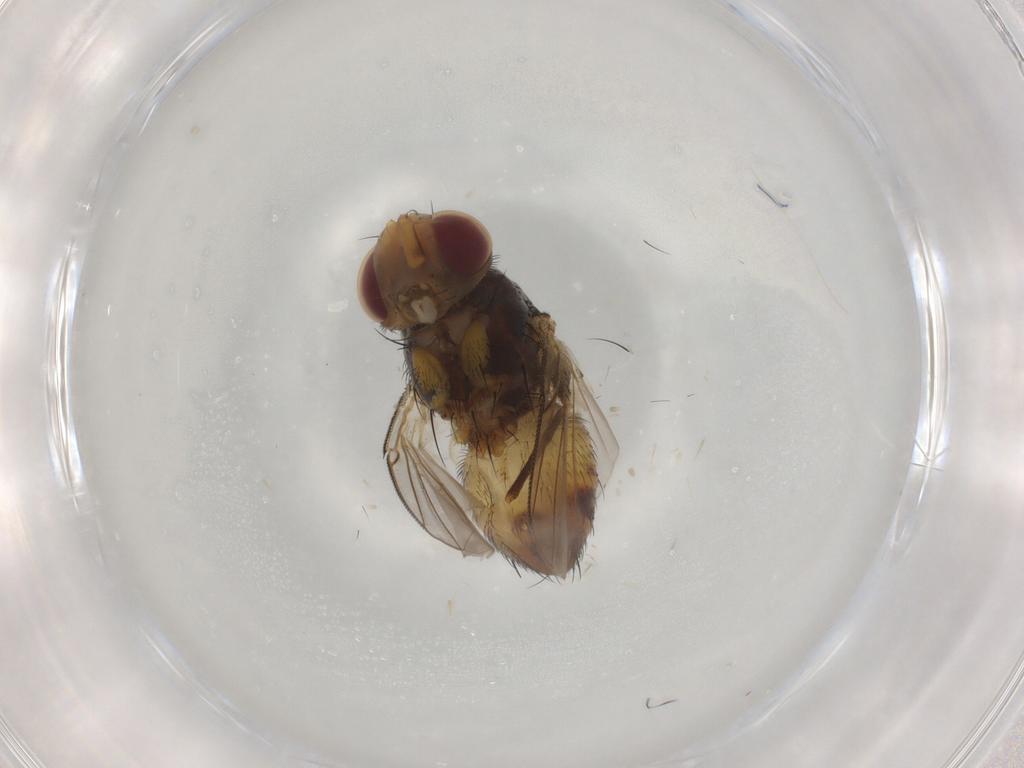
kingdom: Animalia
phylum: Arthropoda
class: Insecta
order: Diptera
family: Dolichopodidae
